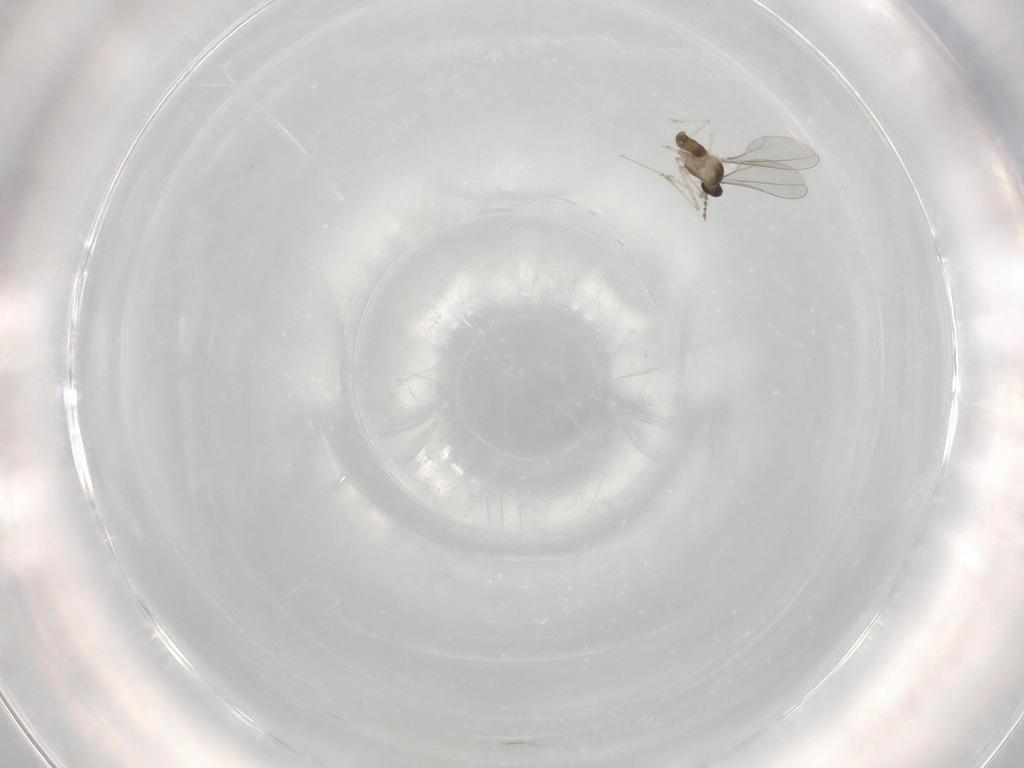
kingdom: Animalia
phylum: Arthropoda
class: Insecta
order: Diptera
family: Cecidomyiidae
